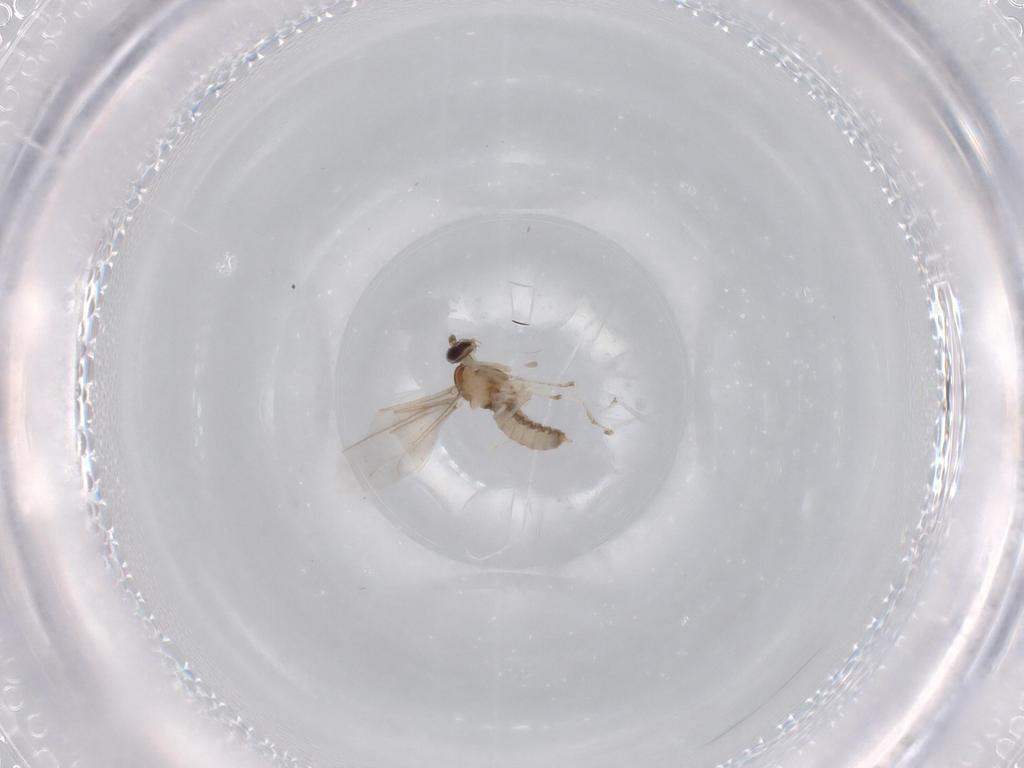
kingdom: Animalia
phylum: Arthropoda
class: Insecta
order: Diptera
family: Cecidomyiidae
